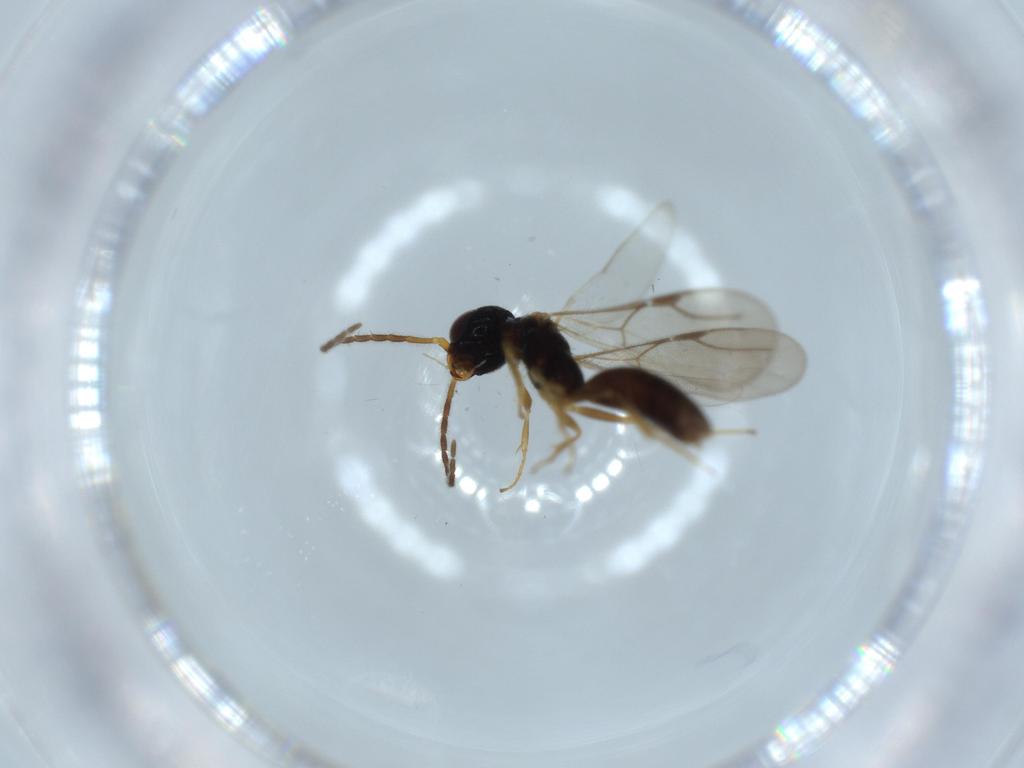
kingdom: Animalia
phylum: Arthropoda
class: Insecta
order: Hymenoptera
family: Bethylidae
